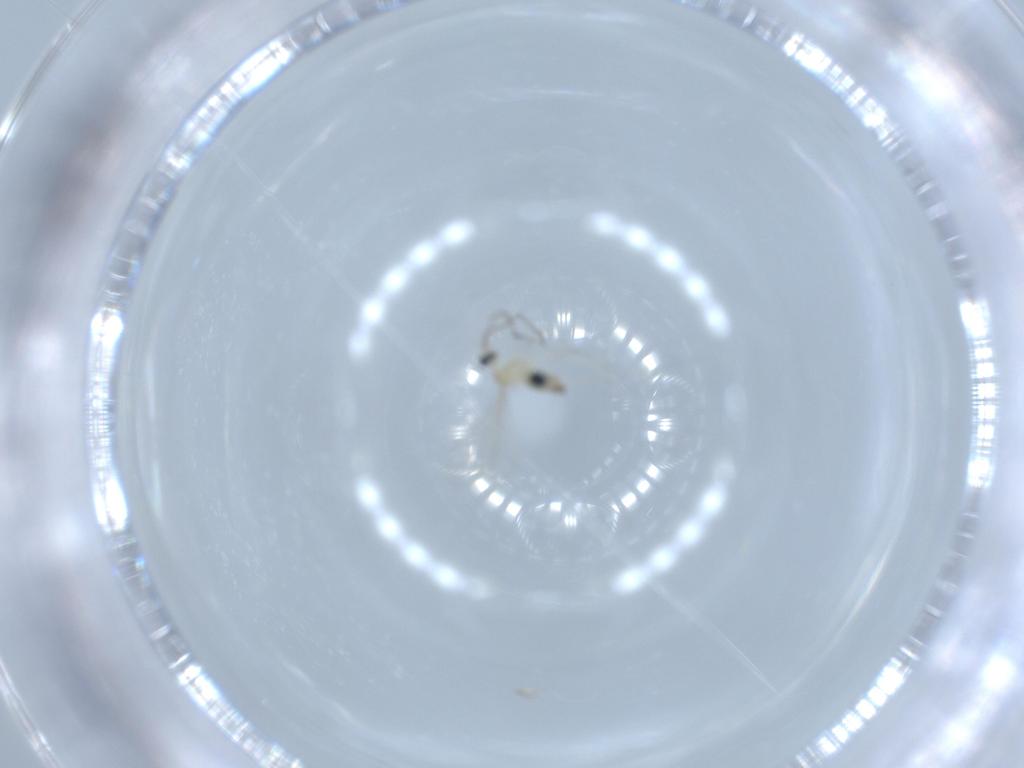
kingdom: Animalia
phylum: Arthropoda
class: Insecta
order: Diptera
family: Cecidomyiidae
